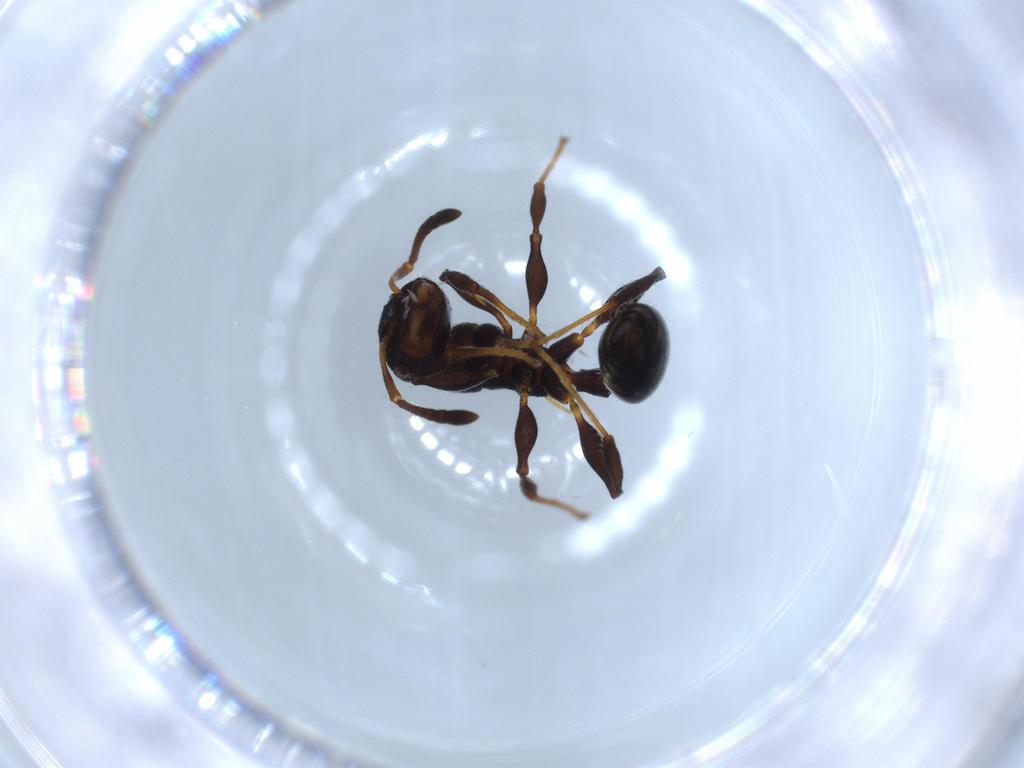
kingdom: Animalia
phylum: Arthropoda
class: Insecta
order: Hymenoptera
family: Formicidae
